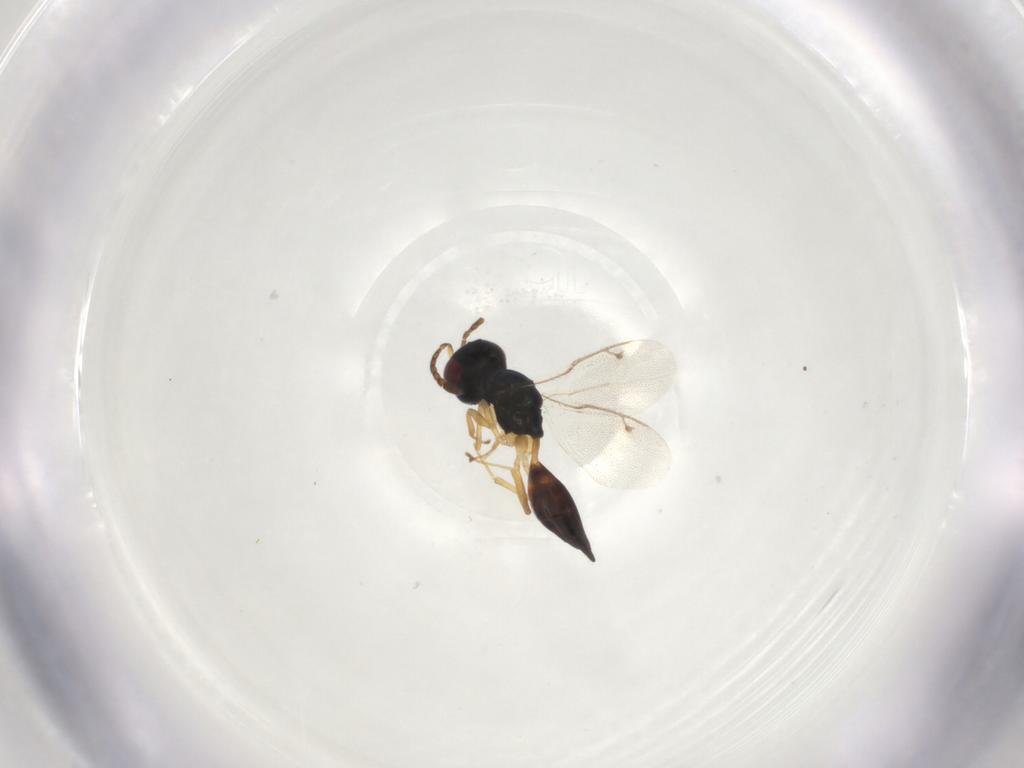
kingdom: Animalia
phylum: Arthropoda
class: Insecta
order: Hymenoptera
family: Pteromalidae
